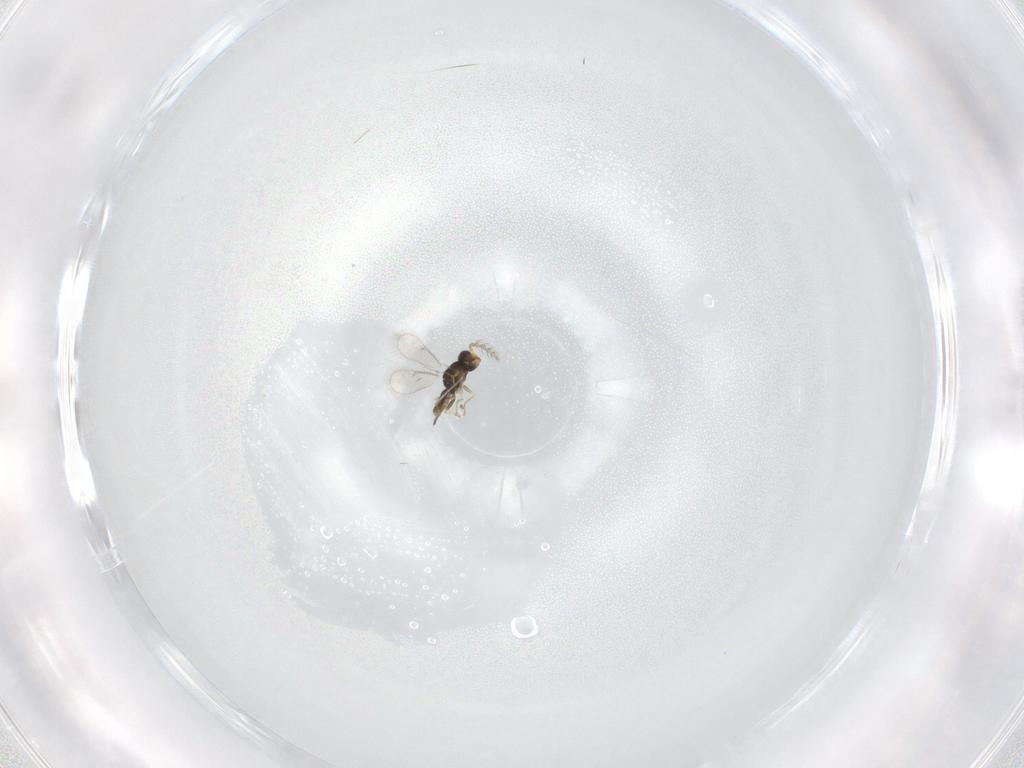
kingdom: Animalia
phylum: Arthropoda
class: Insecta
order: Hymenoptera
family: Eulophidae
